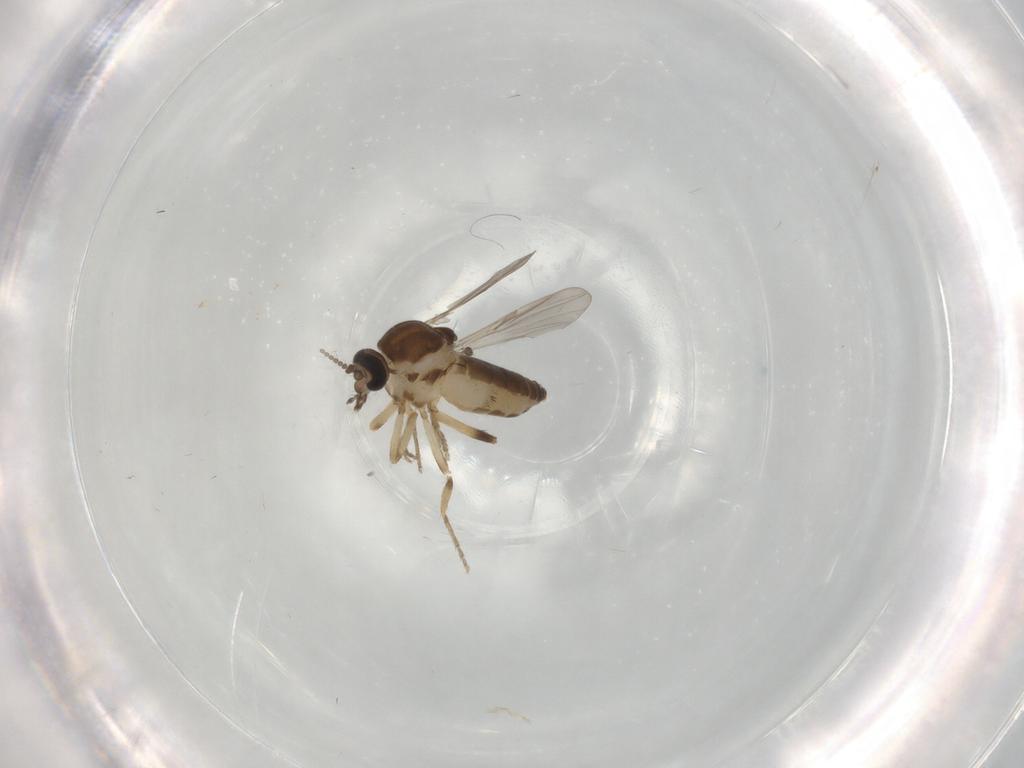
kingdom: Animalia
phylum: Arthropoda
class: Insecta
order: Diptera
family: Ceratopogonidae
